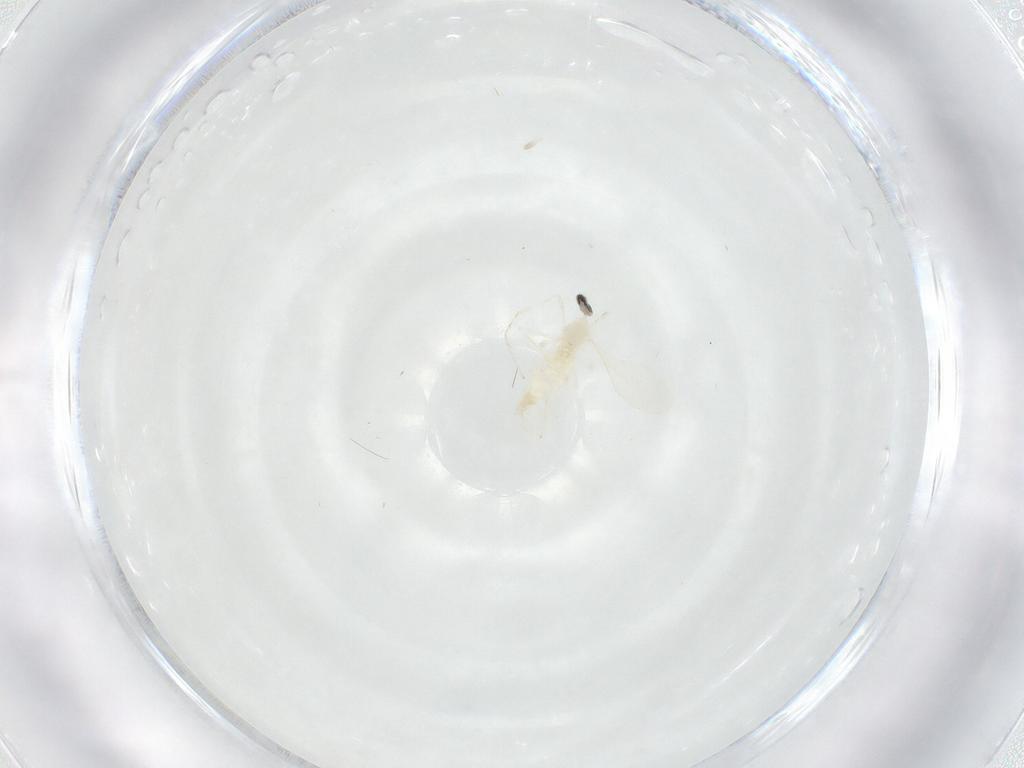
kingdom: Animalia
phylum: Arthropoda
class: Insecta
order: Diptera
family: Cecidomyiidae
